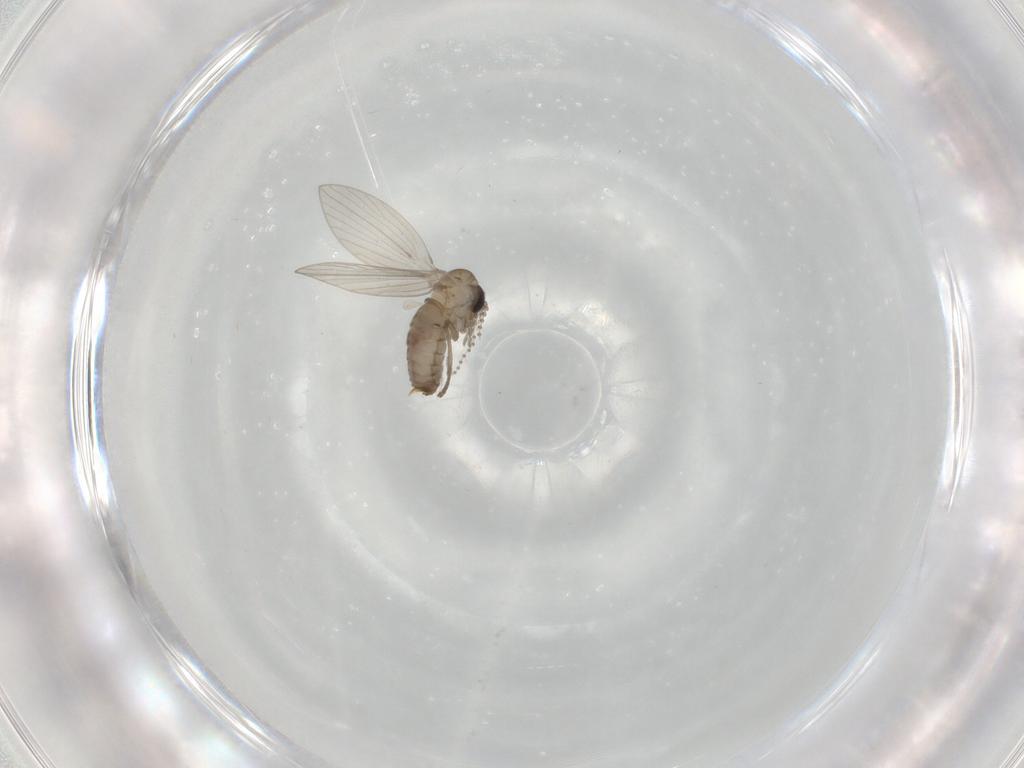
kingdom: Animalia
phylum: Arthropoda
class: Insecta
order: Diptera
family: Psychodidae
